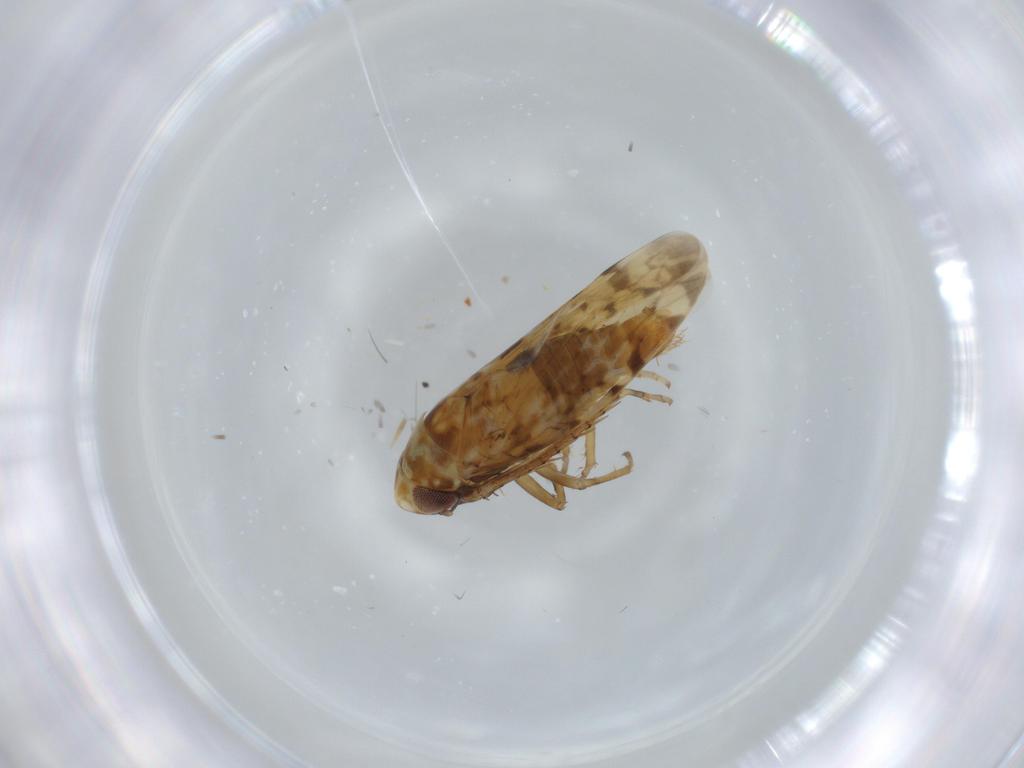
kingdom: Animalia
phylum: Arthropoda
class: Insecta
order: Hemiptera
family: Cicadellidae
